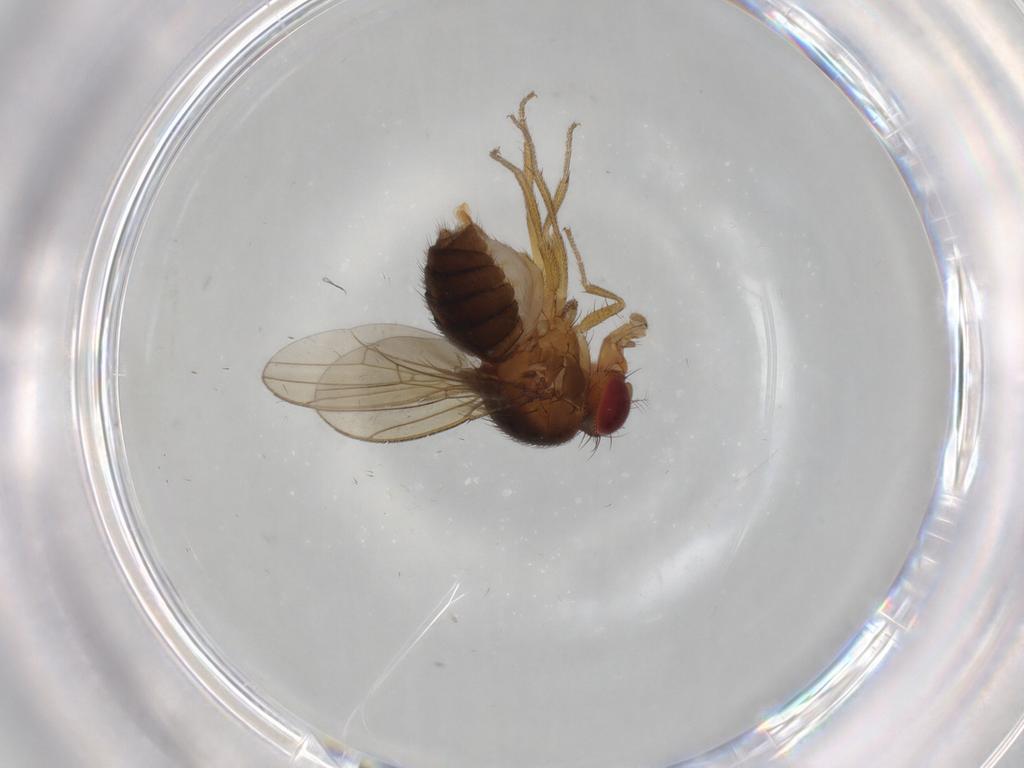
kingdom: Animalia
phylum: Arthropoda
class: Insecta
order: Diptera
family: Drosophilidae
